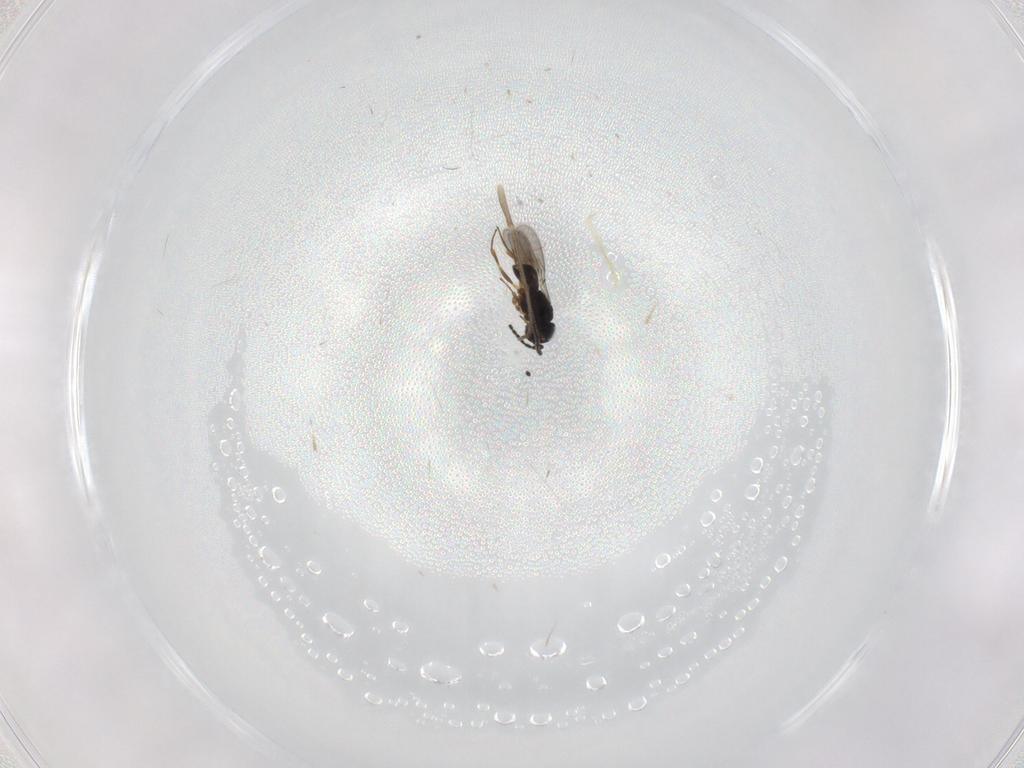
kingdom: Animalia
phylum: Arthropoda
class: Insecta
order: Hymenoptera
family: Scelionidae
